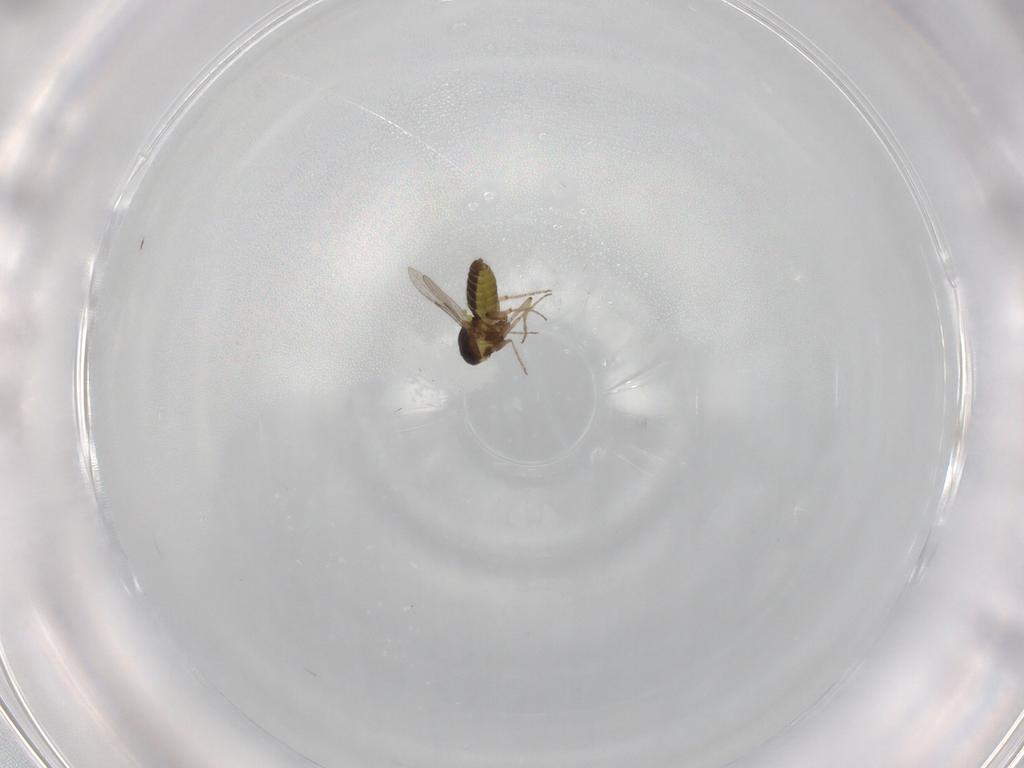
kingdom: Animalia
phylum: Arthropoda
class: Insecta
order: Diptera
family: Ceratopogonidae
